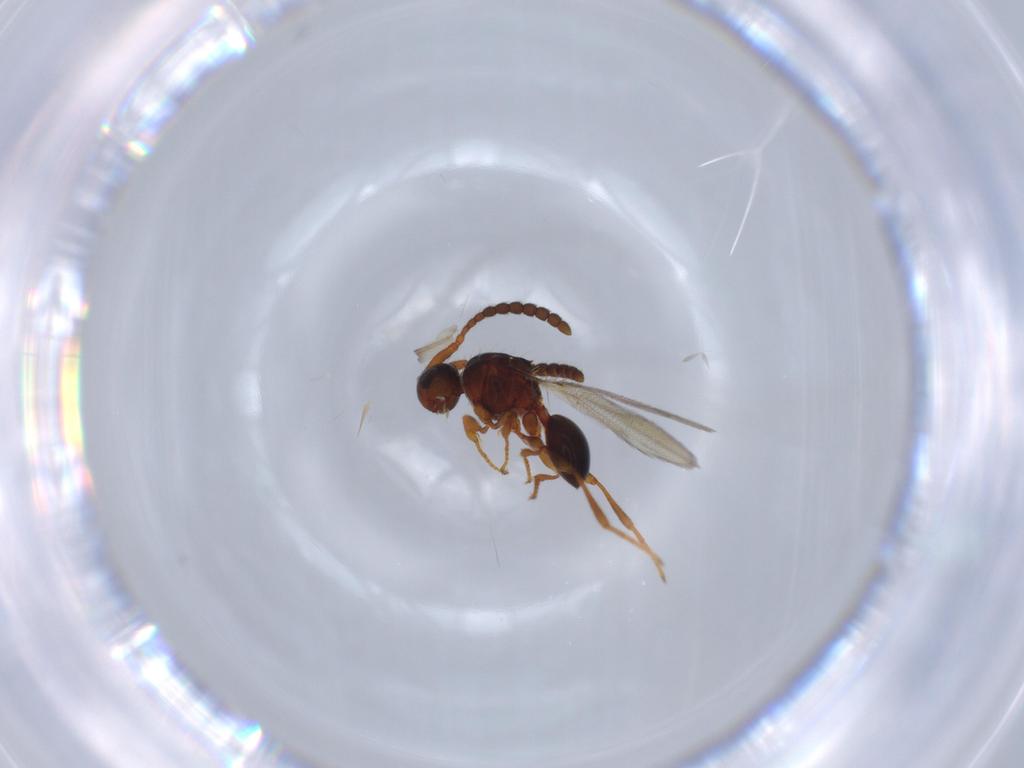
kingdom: Animalia
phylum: Arthropoda
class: Insecta
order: Hymenoptera
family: Diapriidae
